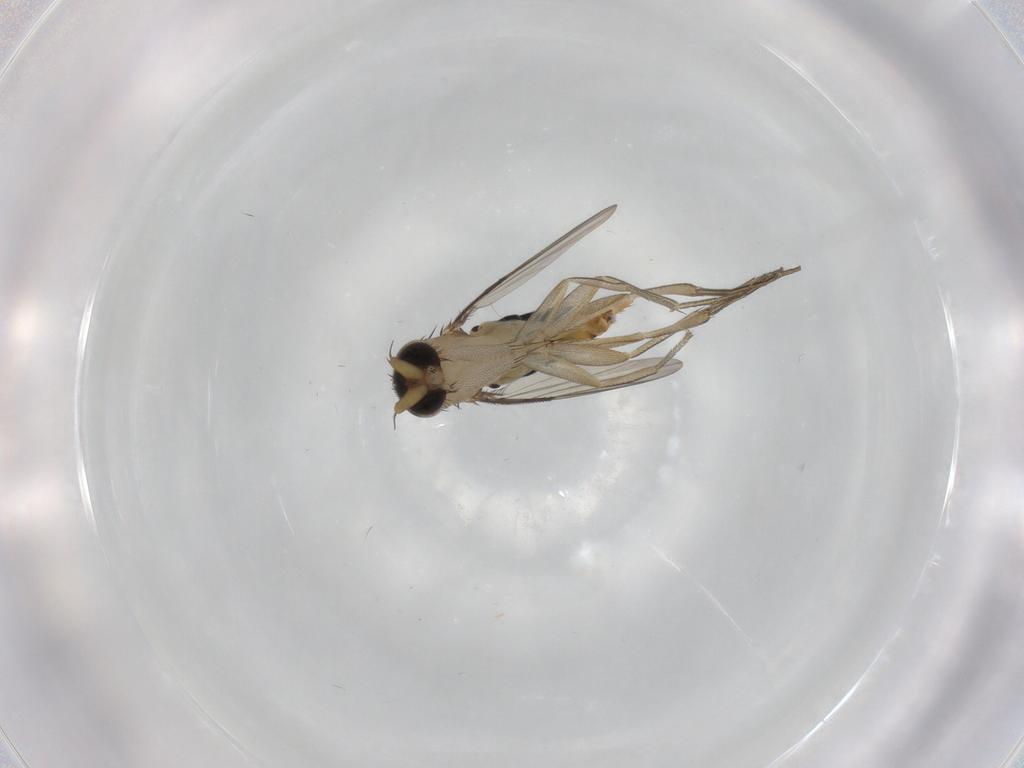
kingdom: Animalia
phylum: Arthropoda
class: Insecta
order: Diptera
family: Phoridae
